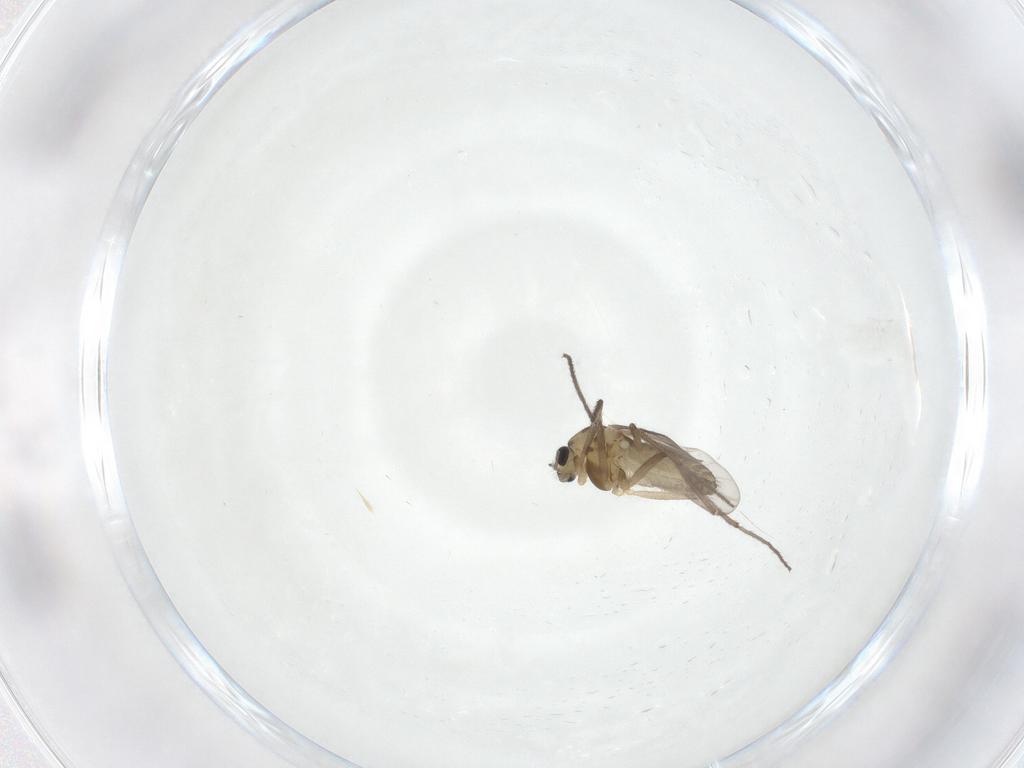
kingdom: Animalia
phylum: Arthropoda
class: Insecta
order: Diptera
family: Chironomidae
